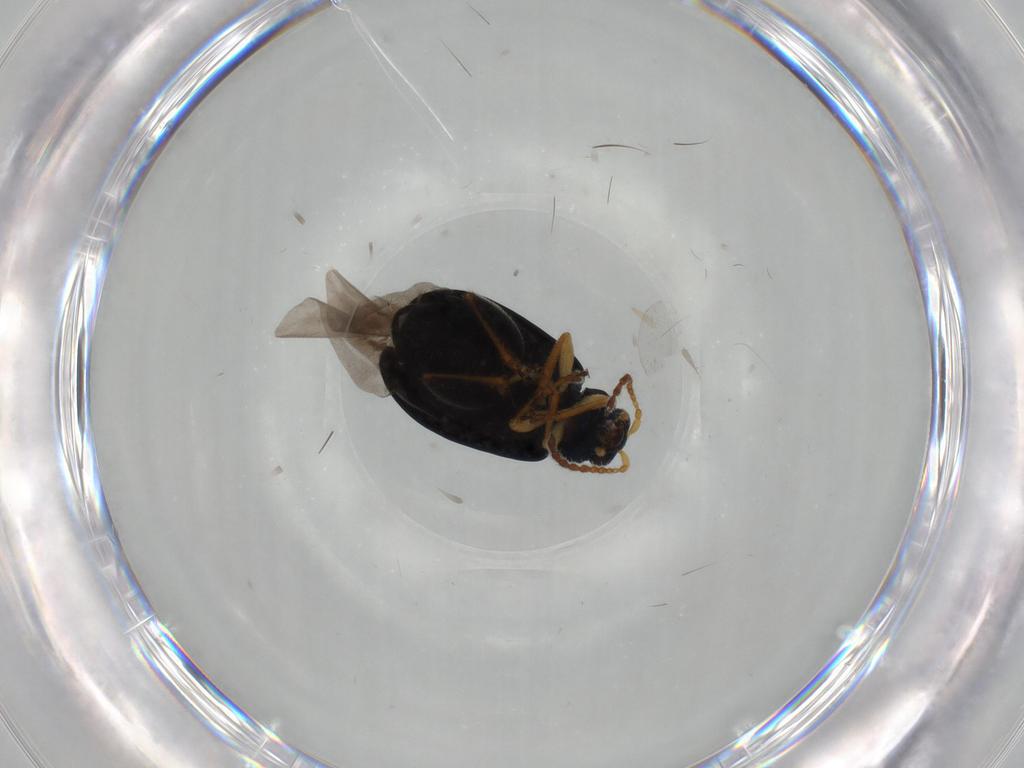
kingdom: Animalia
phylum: Arthropoda
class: Insecta
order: Coleoptera
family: Chrysomelidae
